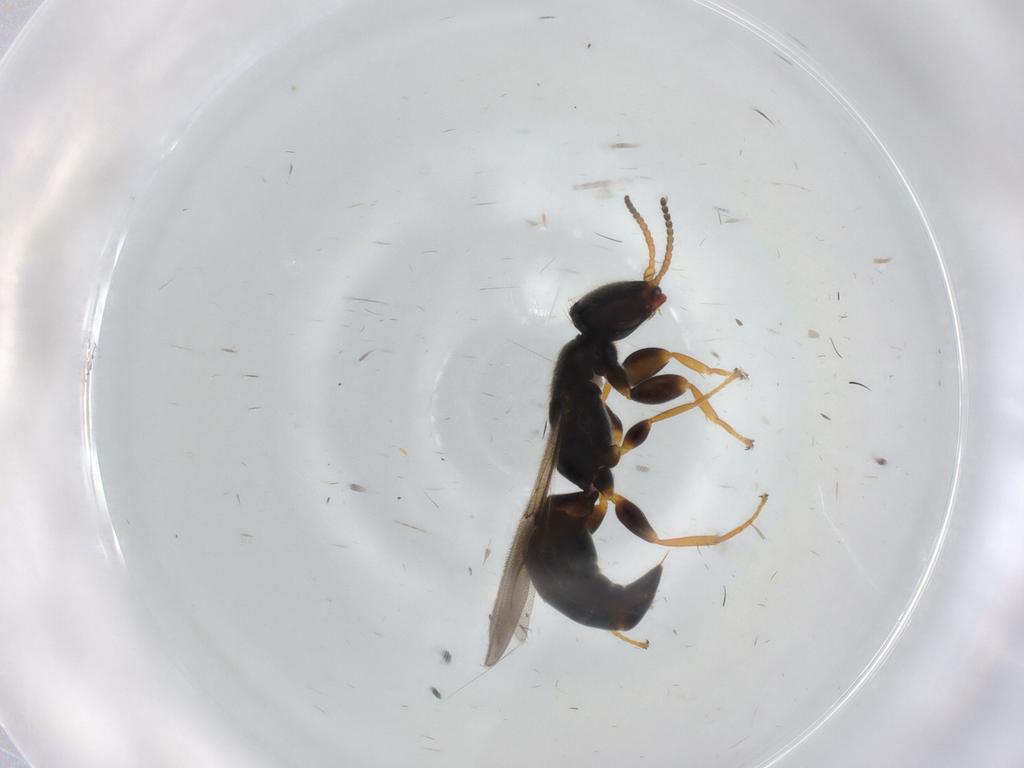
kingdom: Animalia
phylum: Arthropoda
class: Insecta
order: Hymenoptera
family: Bethylidae
